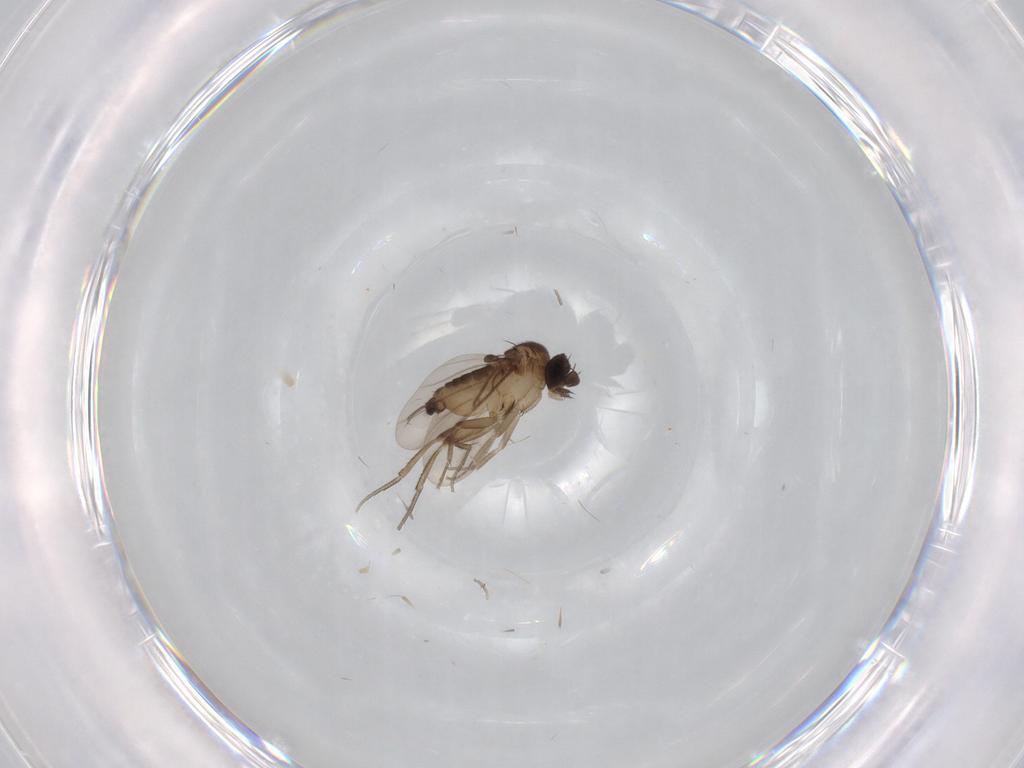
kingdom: Animalia
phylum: Arthropoda
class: Insecta
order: Diptera
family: Phoridae
